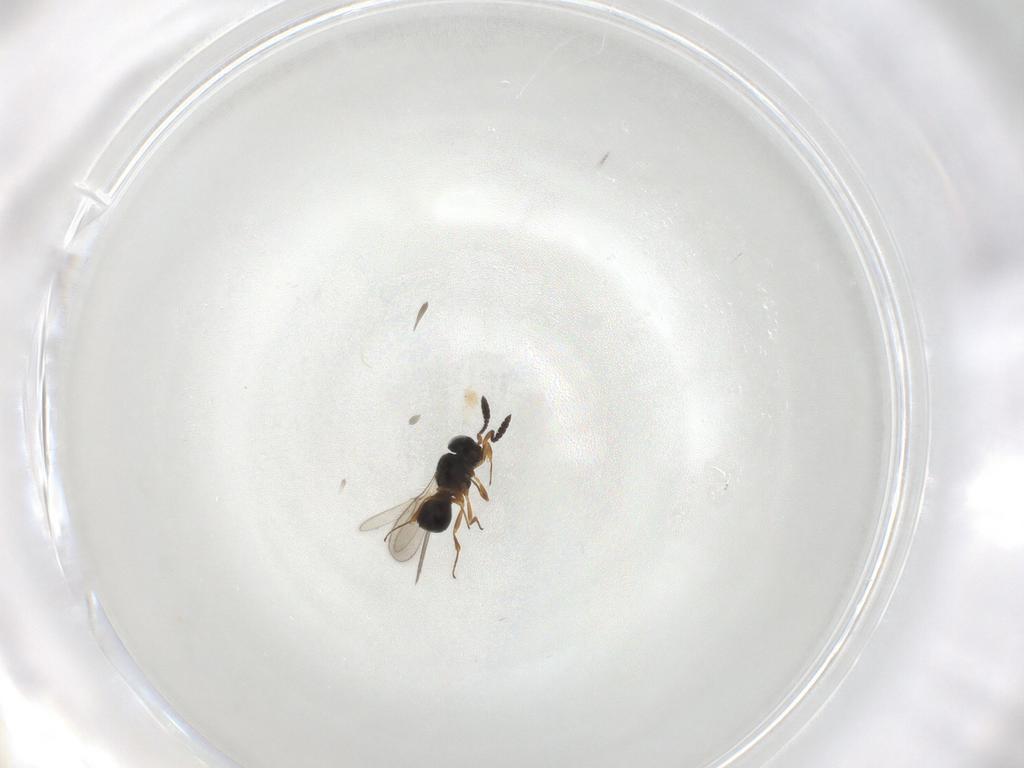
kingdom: Animalia
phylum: Arthropoda
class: Insecta
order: Hymenoptera
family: Scelionidae
